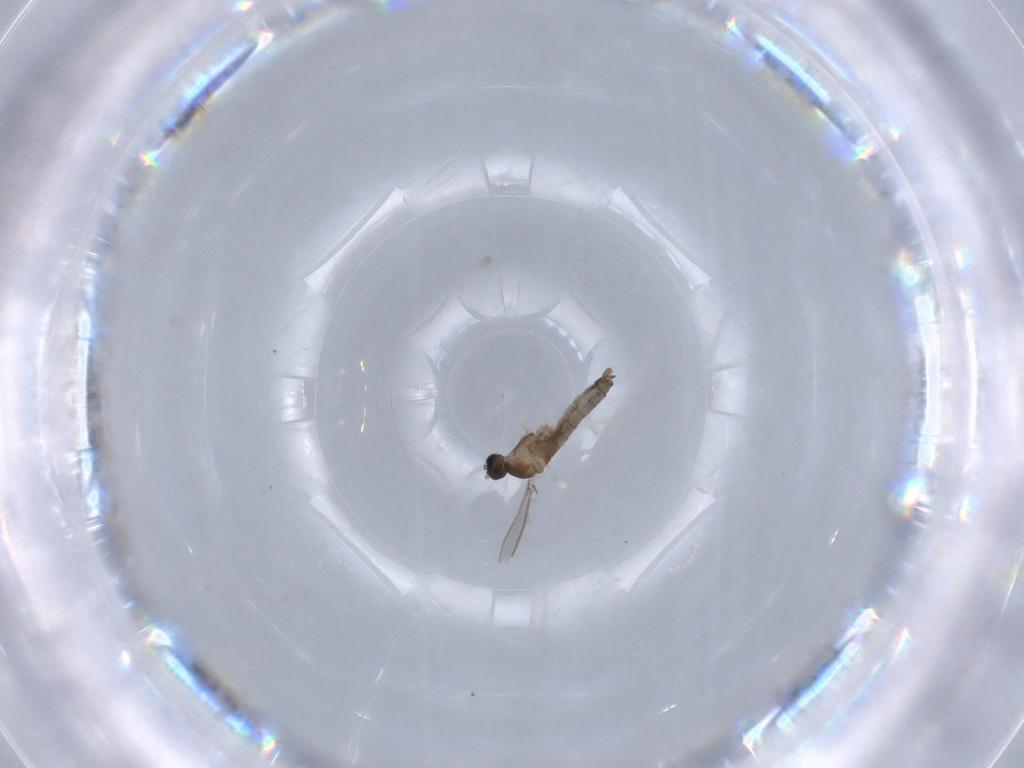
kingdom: Animalia
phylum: Arthropoda
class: Insecta
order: Diptera
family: Cecidomyiidae
